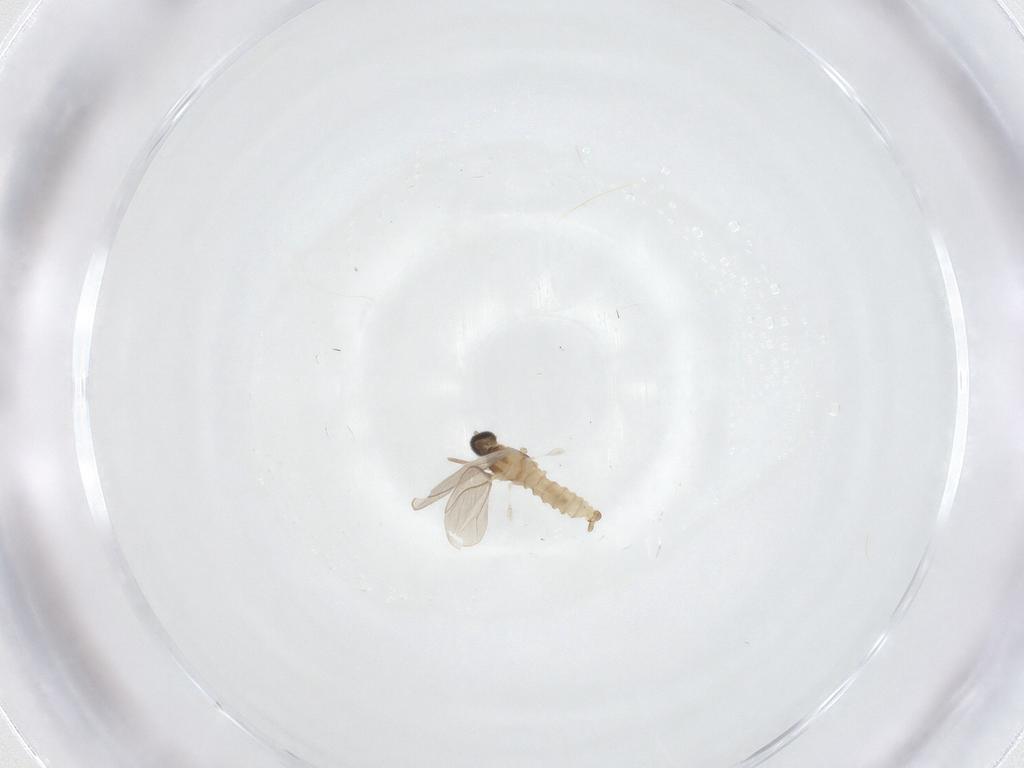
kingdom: Animalia
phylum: Arthropoda
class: Insecta
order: Diptera
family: Cecidomyiidae
